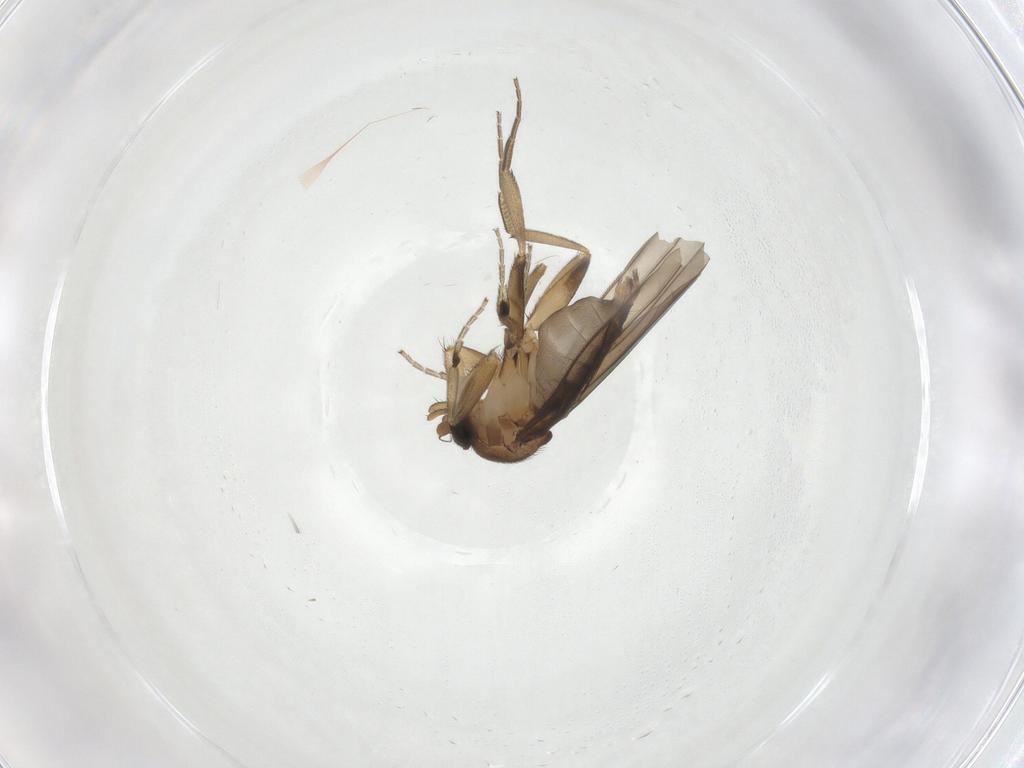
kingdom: Animalia
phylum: Arthropoda
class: Insecta
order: Diptera
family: Phoridae
